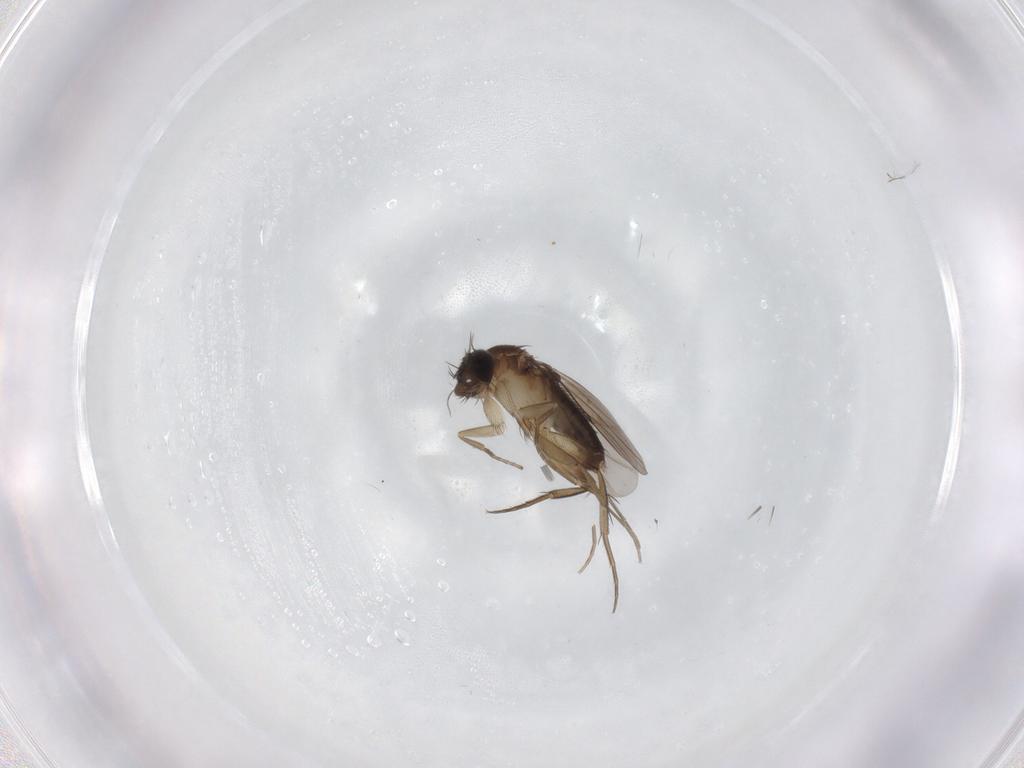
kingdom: Animalia
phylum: Arthropoda
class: Insecta
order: Diptera
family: Phoridae
